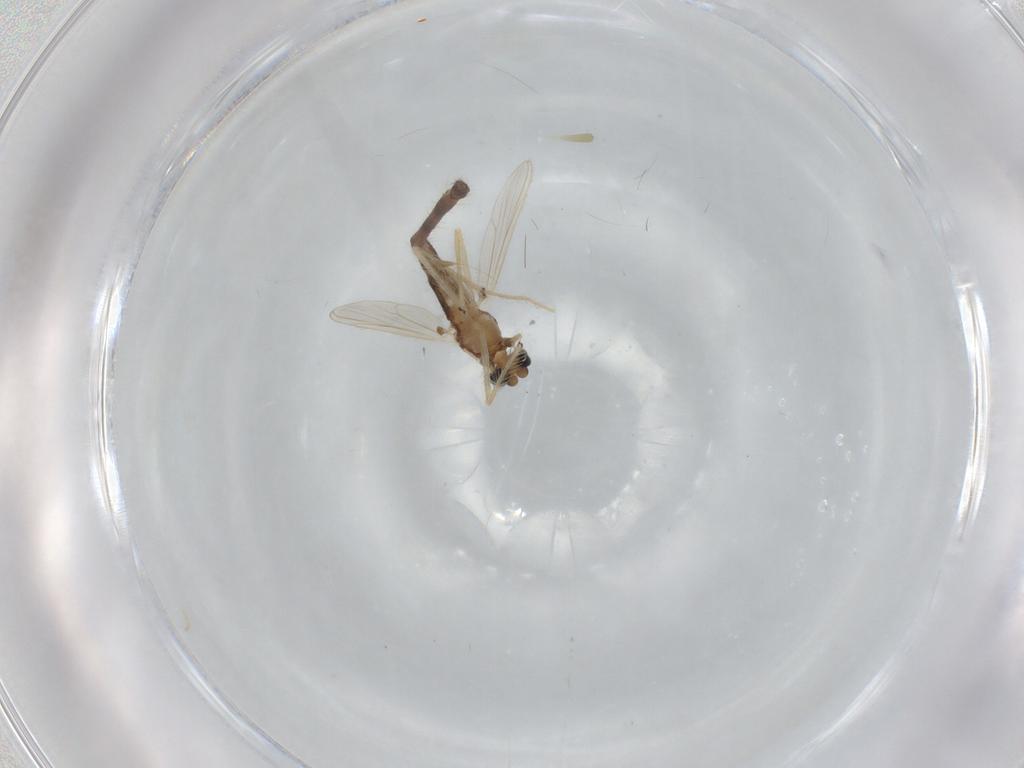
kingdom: Animalia
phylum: Arthropoda
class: Insecta
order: Diptera
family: Chironomidae
